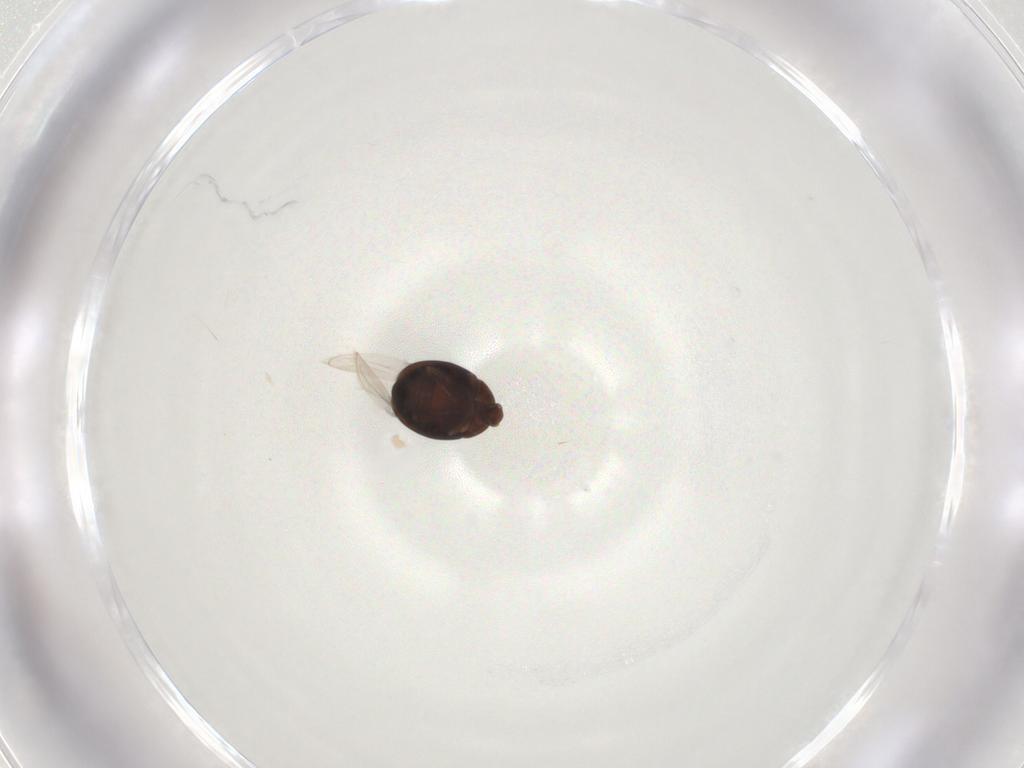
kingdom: Animalia
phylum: Arthropoda
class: Insecta
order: Coleoptera
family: Corylophidae
